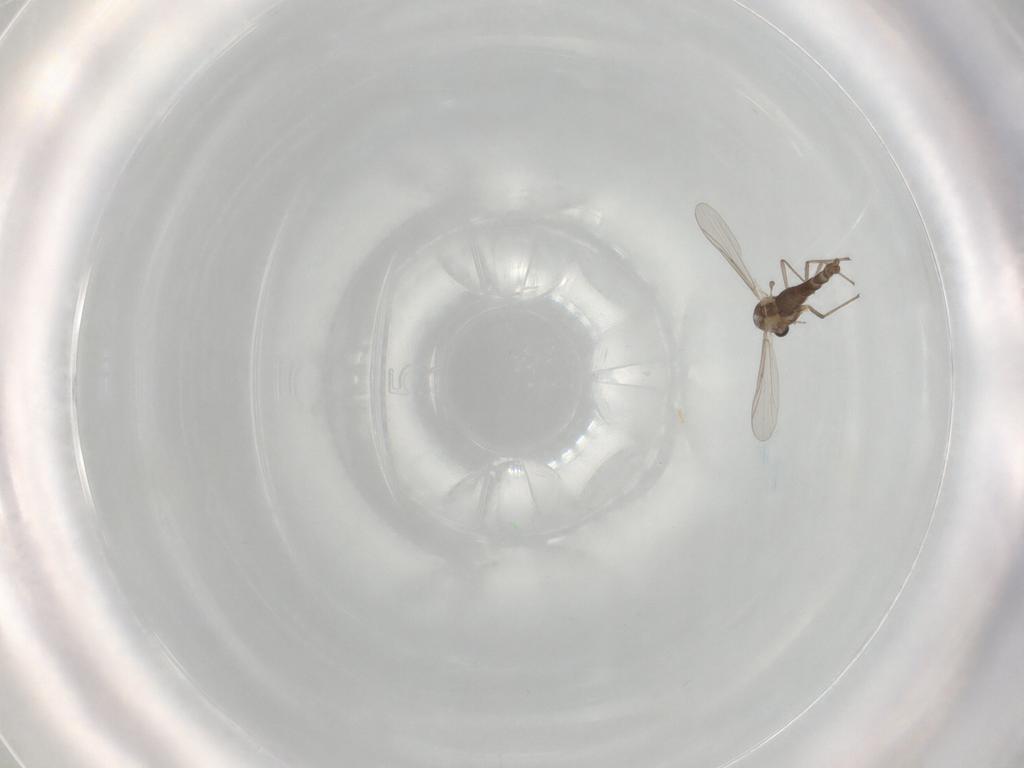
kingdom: Animalia
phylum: Arthropoda
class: Insecta
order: Diptera
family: Chironomidae
